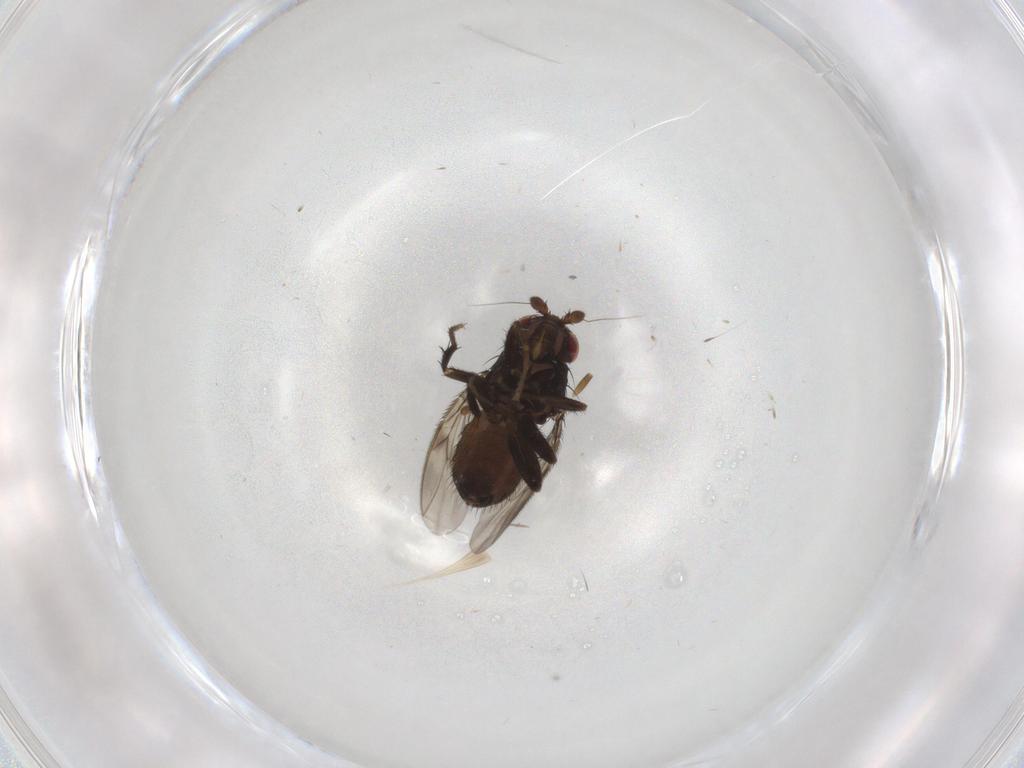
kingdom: Animalia
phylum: Arthropoda
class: Insecta
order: Diptera
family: Sphaeroceridae
